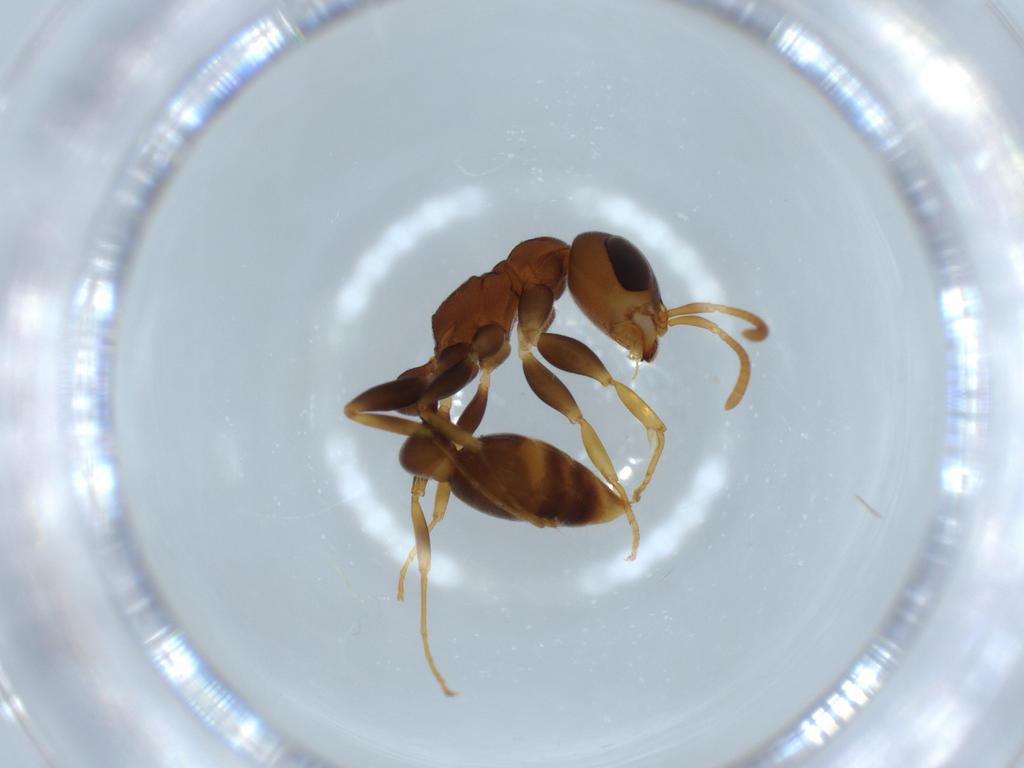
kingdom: Animalia
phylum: Arthropoda
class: Insecta
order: Hymenoptera
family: Formicidae
